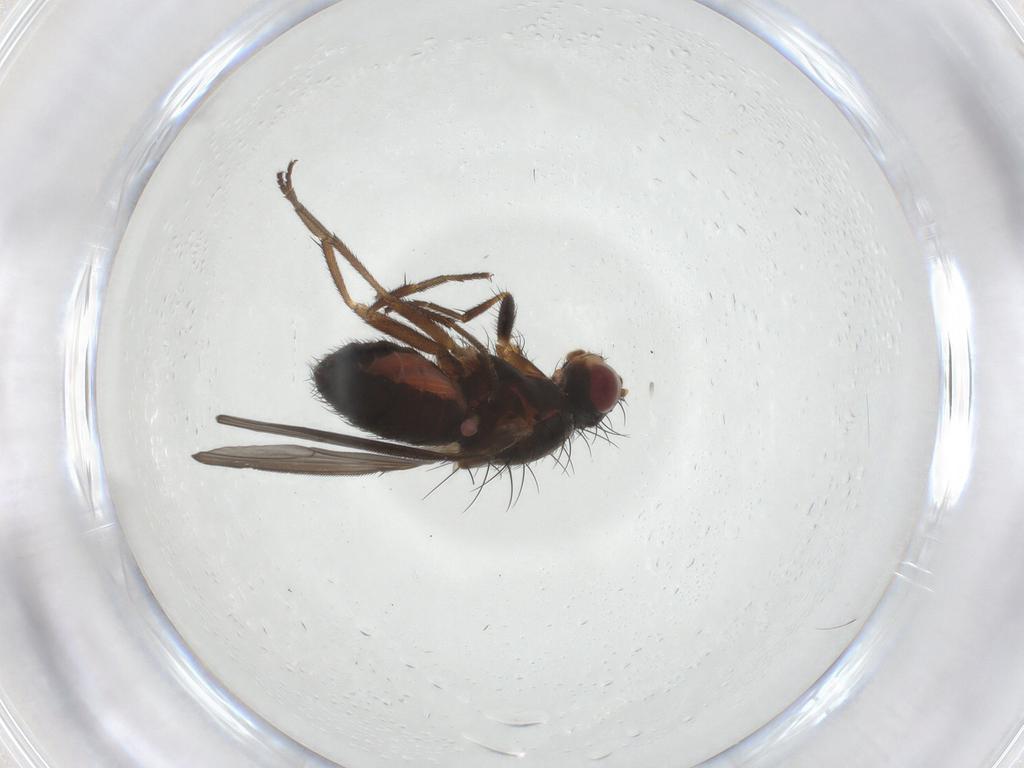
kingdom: Animalia
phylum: Arthropoda
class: Insecta
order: Diptera
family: Heleomyzidae
